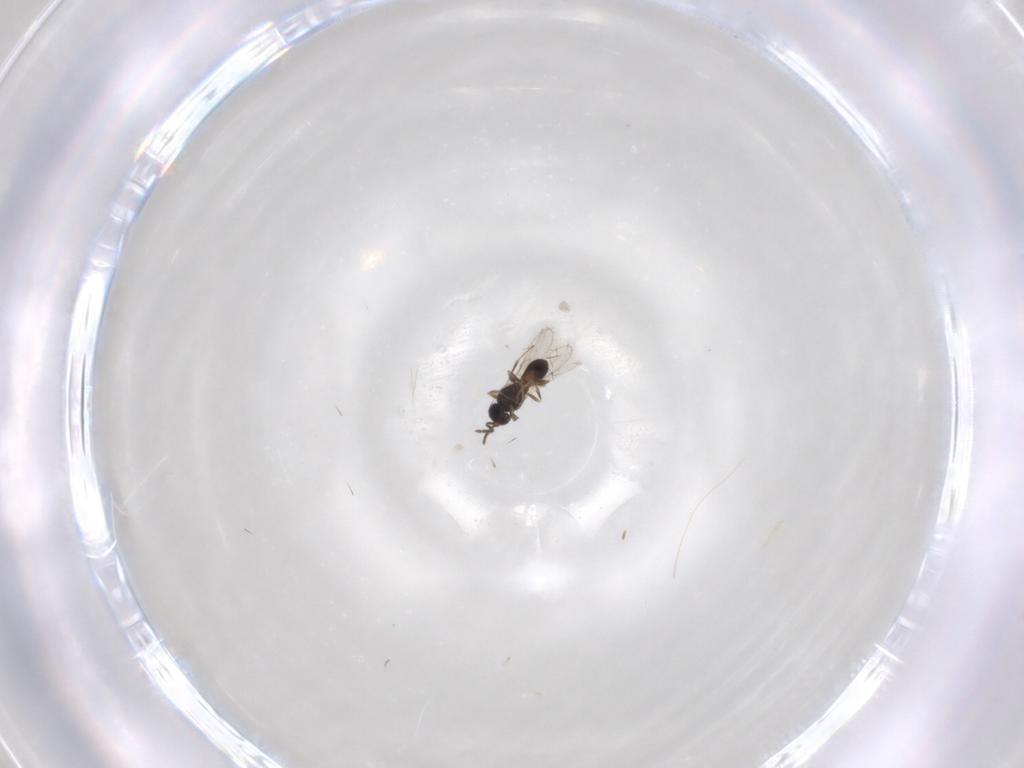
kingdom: Animalia
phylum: Arthropoda
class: Insecta
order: Hymenoptera
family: Scelionidae
